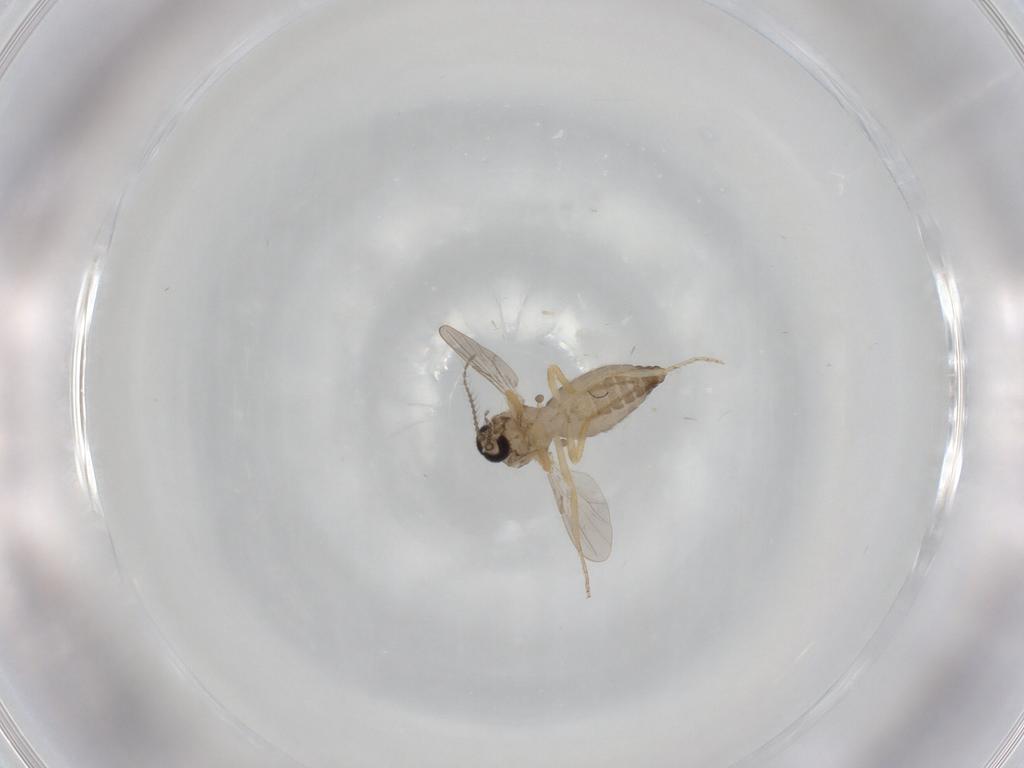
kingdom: Animalia
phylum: Arthropoda
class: Insecta
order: Diptera
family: Ceratopogonidae
